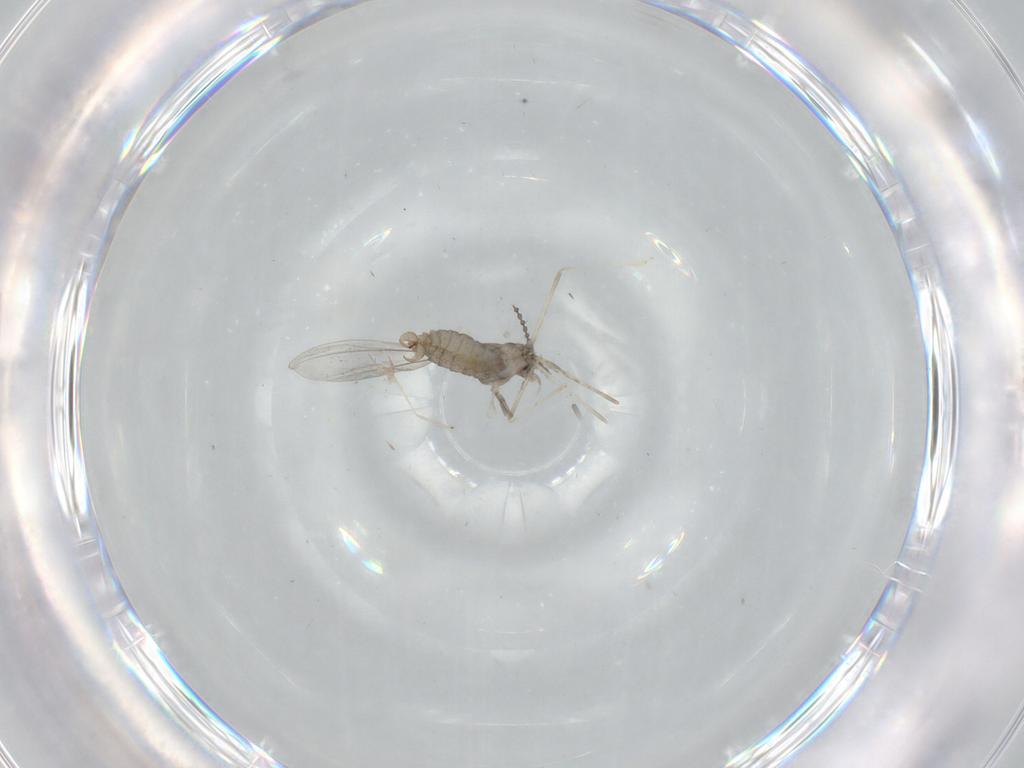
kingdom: Animalia
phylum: Arthropoda
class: Insecta
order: Diptera
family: Cecidomyiidae
